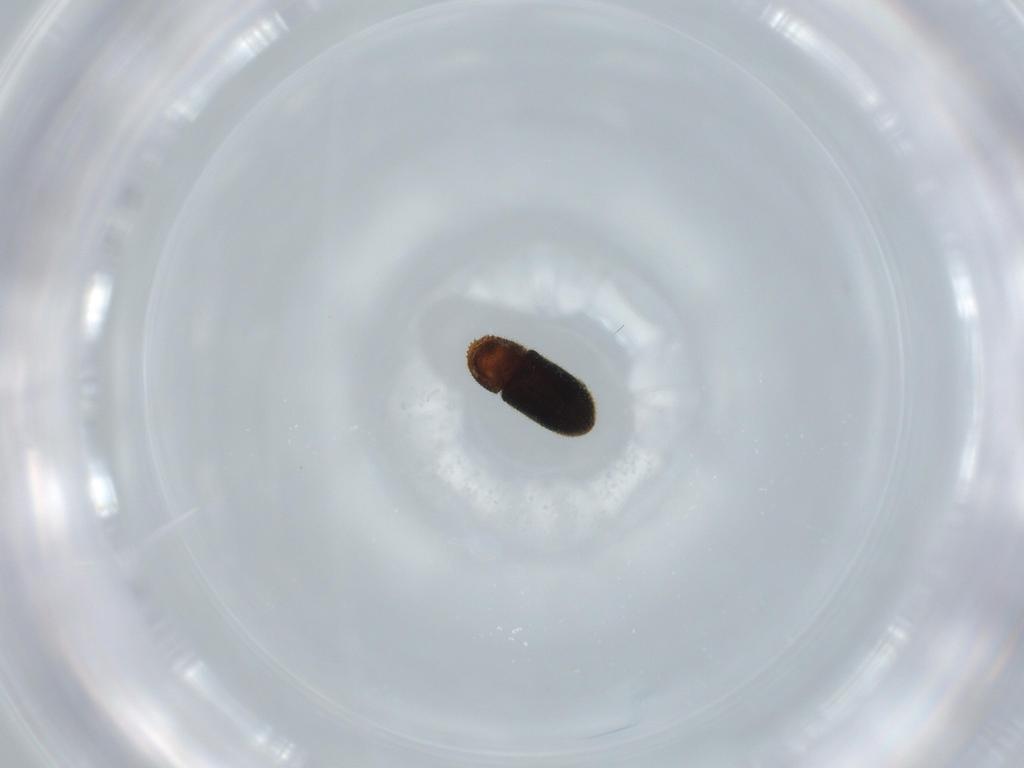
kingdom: Animalia
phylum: Arthropoda
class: Insecta
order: Coleoptera
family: Curculionidae
